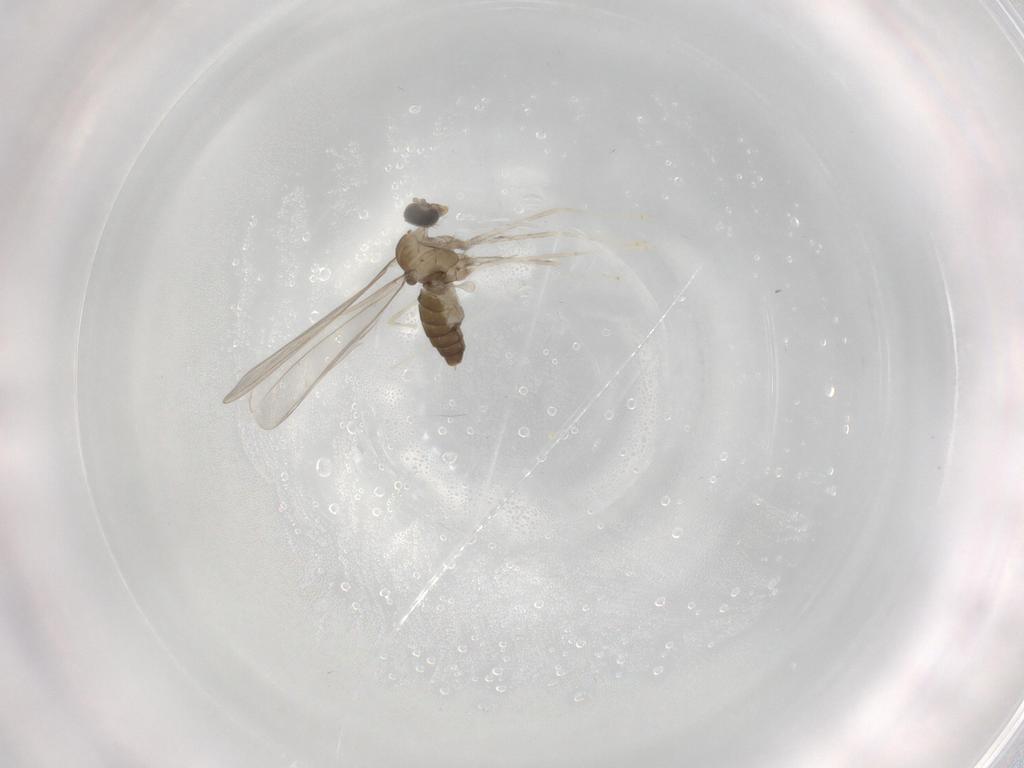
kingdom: Animalia
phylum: Arthropoda
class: Insecta
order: Diptera
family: Cecidomyiidae
